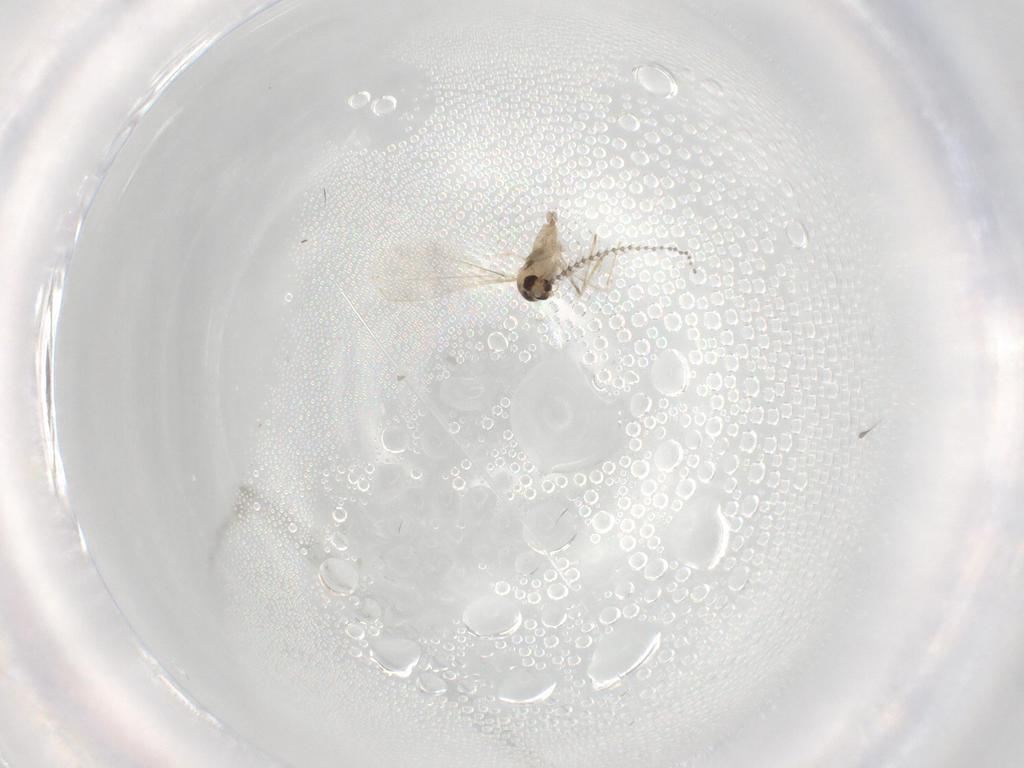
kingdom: Animalia
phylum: Arthropoda
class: Insecta
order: Diptera
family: Cecidomyiidae
